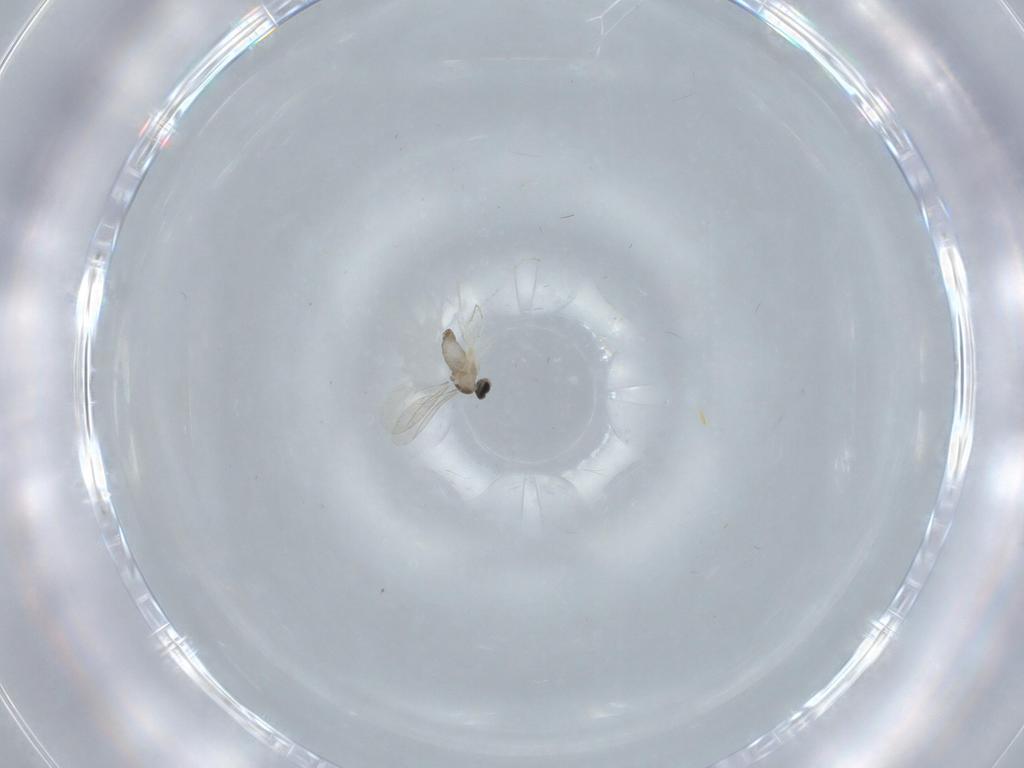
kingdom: Animalia
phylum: Arthropoda
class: Insecta
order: Diptera
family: Cecidomyiidae
